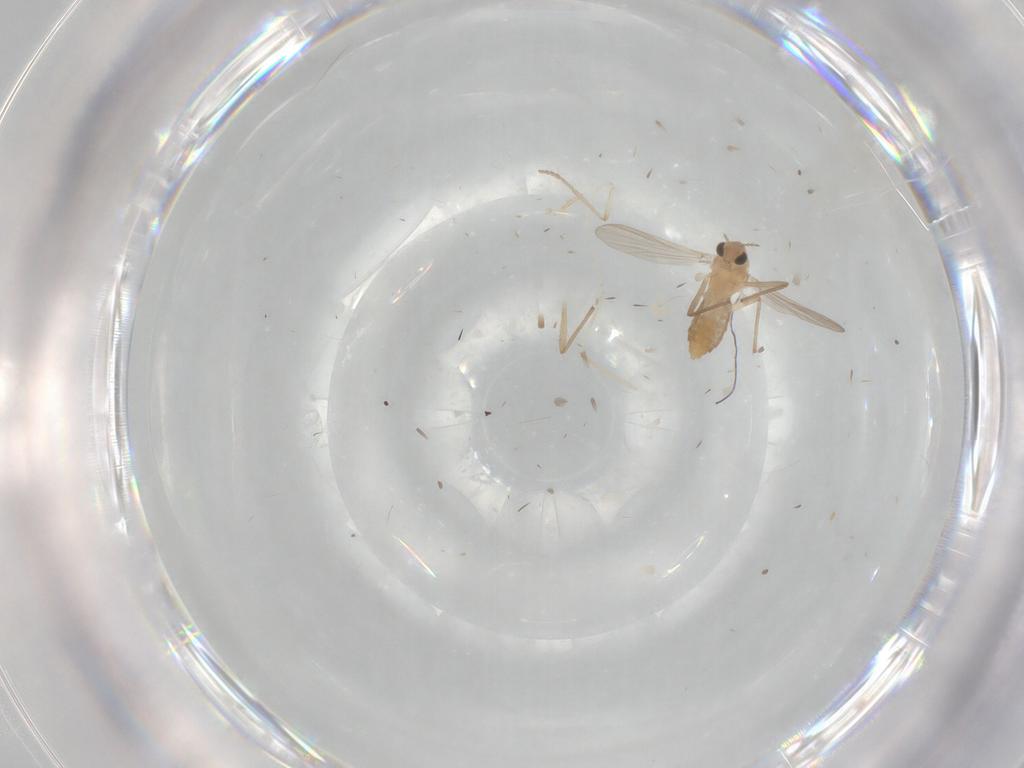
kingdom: Animalia
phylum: Arthropoda
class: Insecta
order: Diptera
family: Chironomidae
